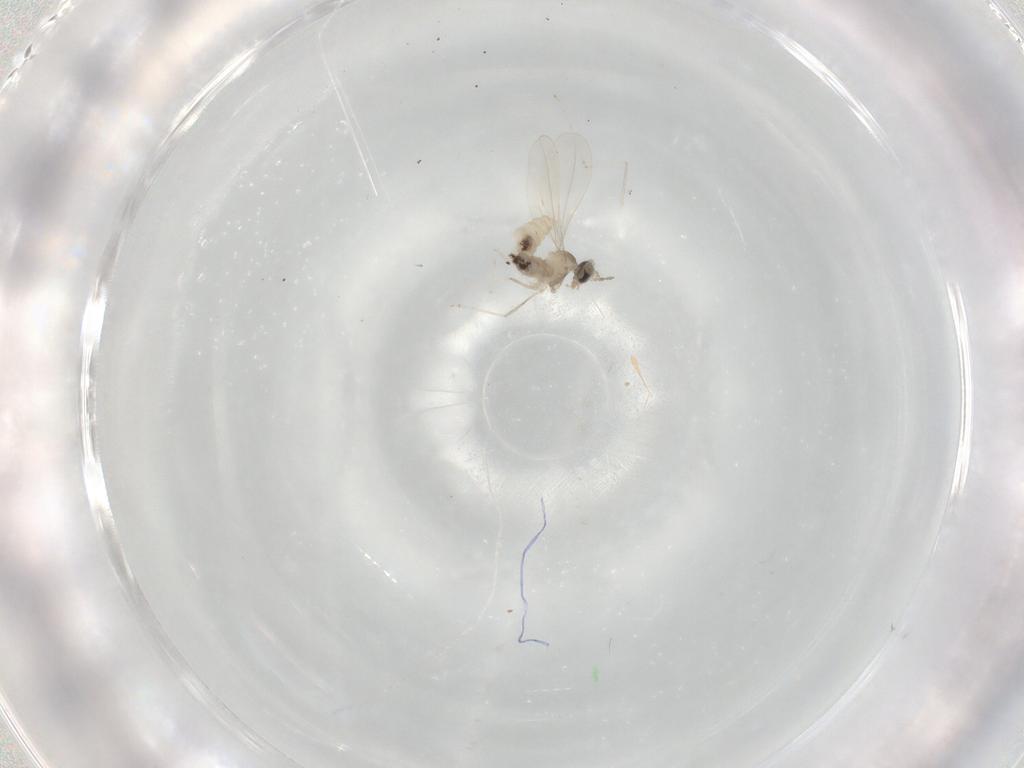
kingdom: Animalia
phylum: Arthropoda
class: Insecta
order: Diptera
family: Cecidomyiidae
